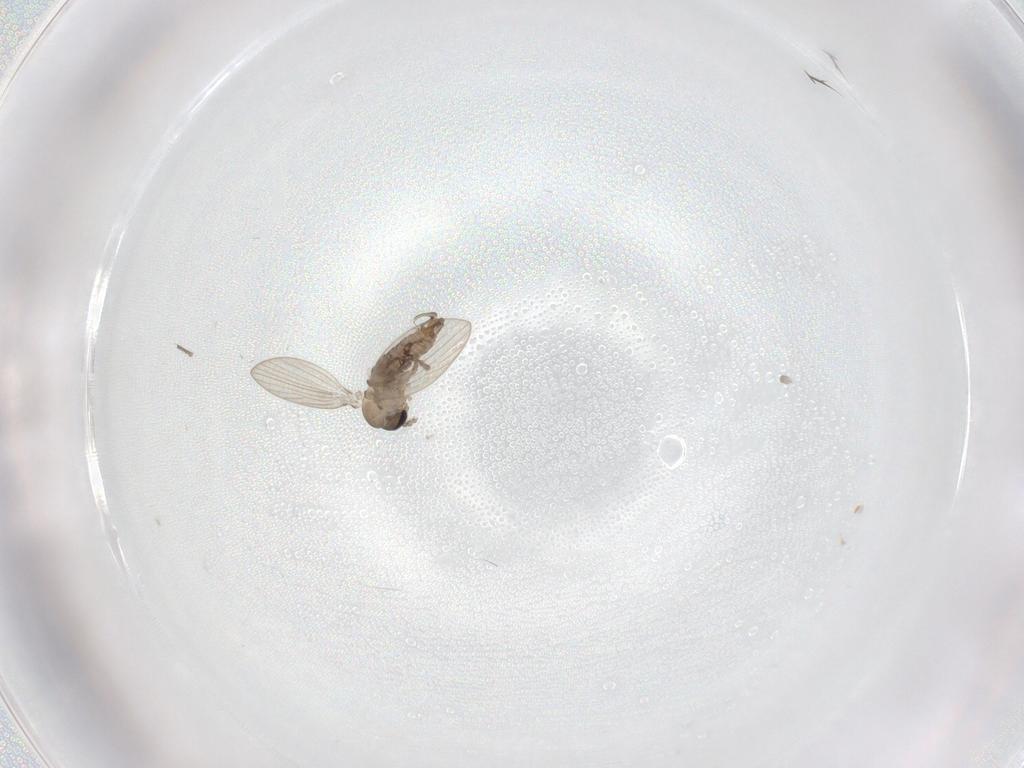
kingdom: Animalia
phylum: Arthropoda
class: Insecta
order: Diptera
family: Psychodidae
